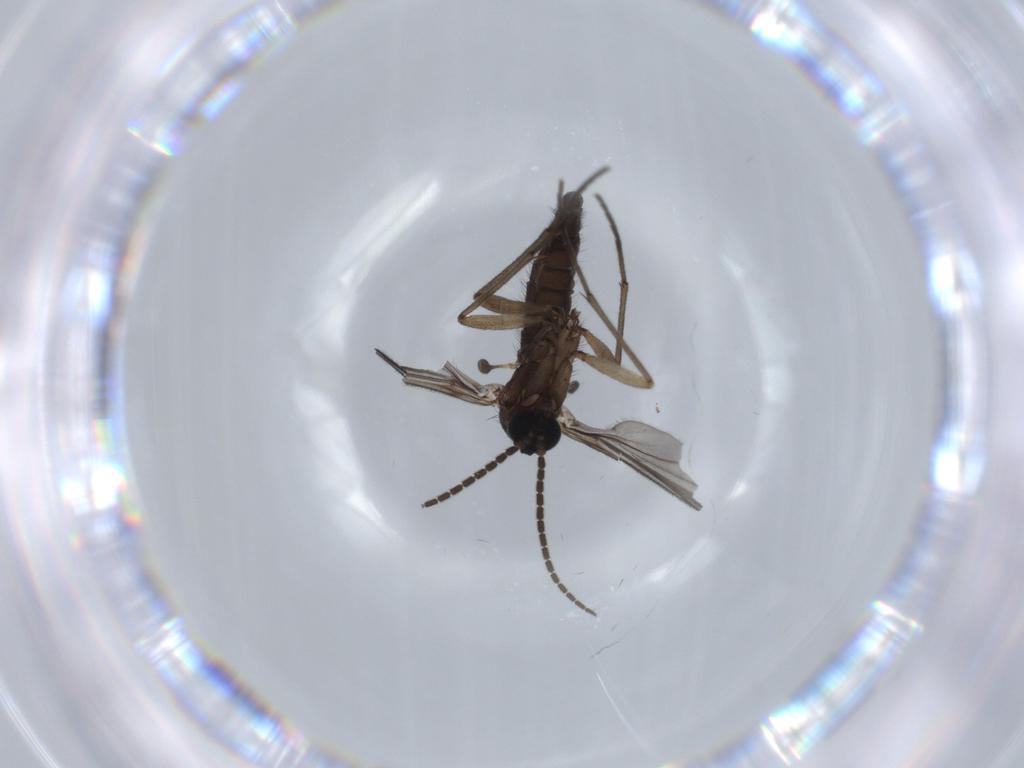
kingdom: Animalia
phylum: Arthropoda
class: Insecta
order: Diptera
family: Sciaridae
